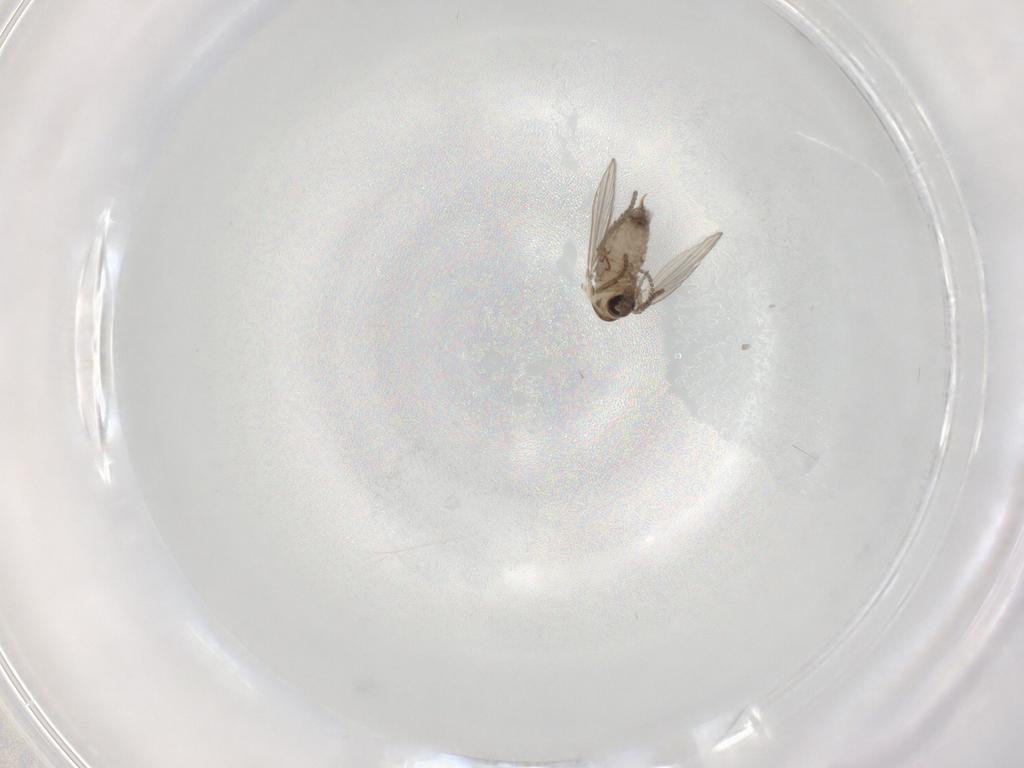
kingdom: Animalia
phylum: Arthropoda
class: Insecta
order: Diptera
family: Psychodidae
